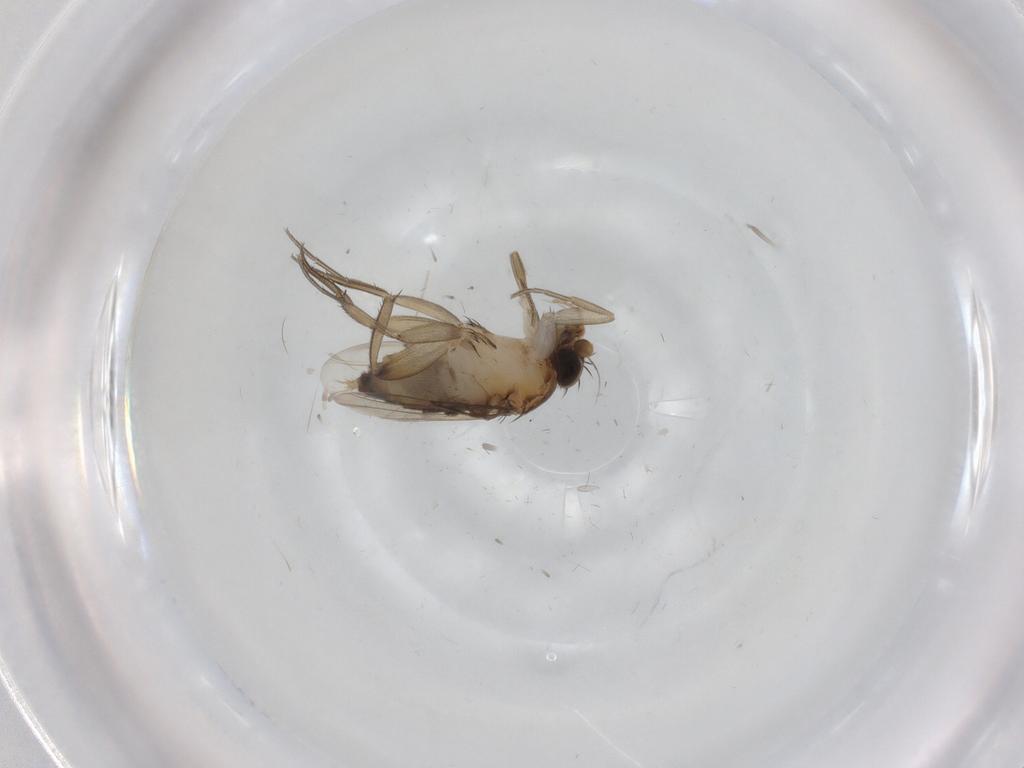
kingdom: Animalia
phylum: Arthropoda
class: Insecta
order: Diptera
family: Phoridae
